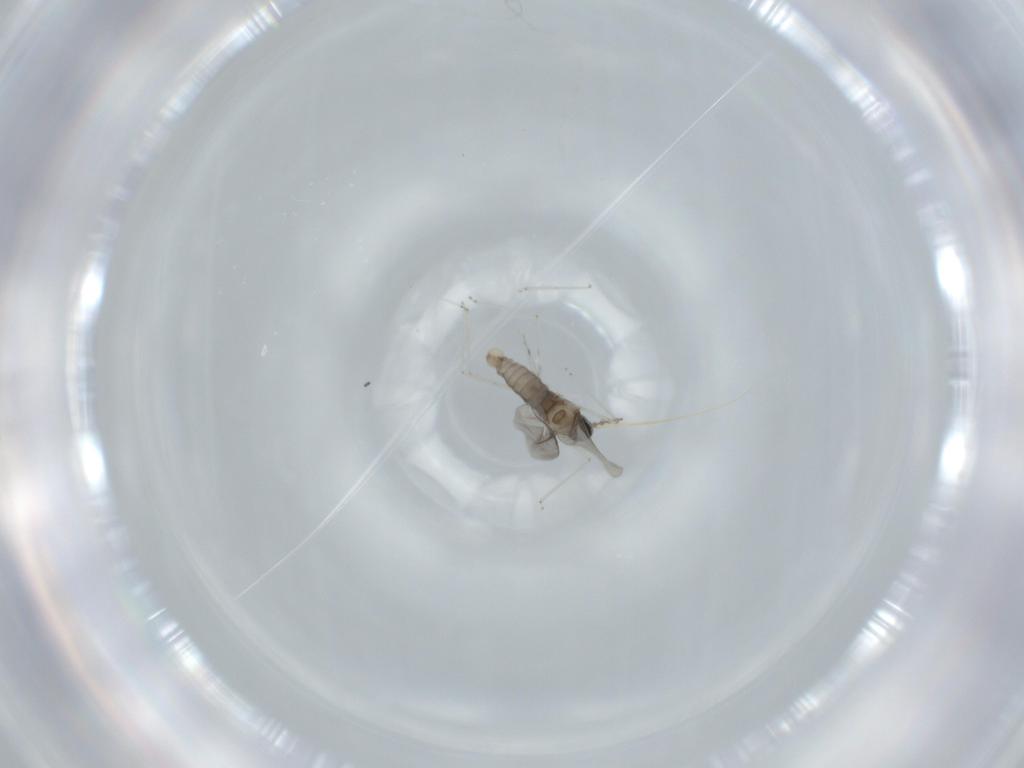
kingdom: Animalia
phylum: Arthropoda
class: Insecta
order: Diptera
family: Cecidomyiidae
